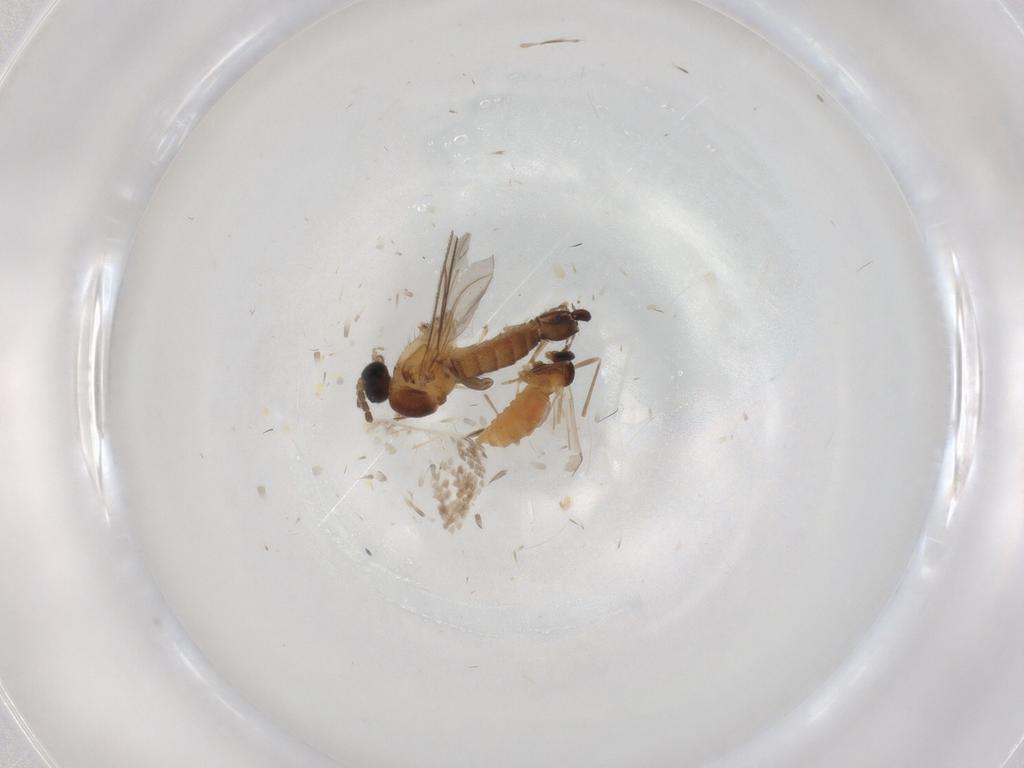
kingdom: Animalia
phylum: Arthropoda
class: Insecta
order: Diptera
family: Cecidomyiidae
